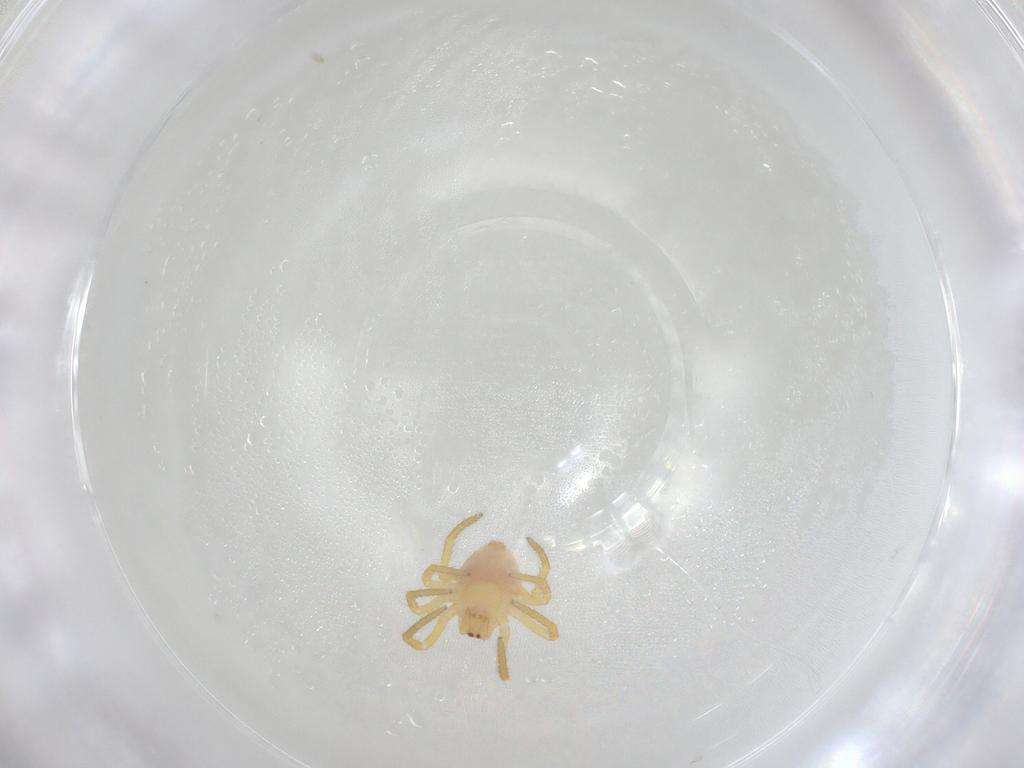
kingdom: Animalia
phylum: Arthropoda
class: Arachnida
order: Araneae
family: Theridiidae
